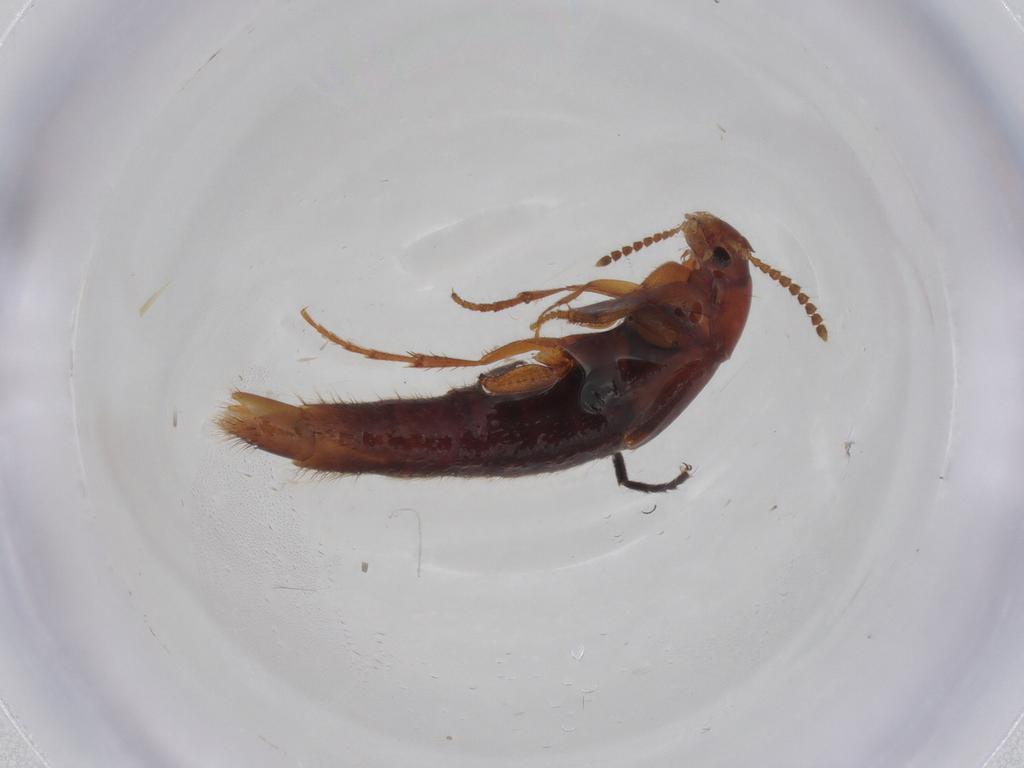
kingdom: Animalia
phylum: Arthropoda
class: Insecta
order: Coleoptera
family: Staphylinidae
